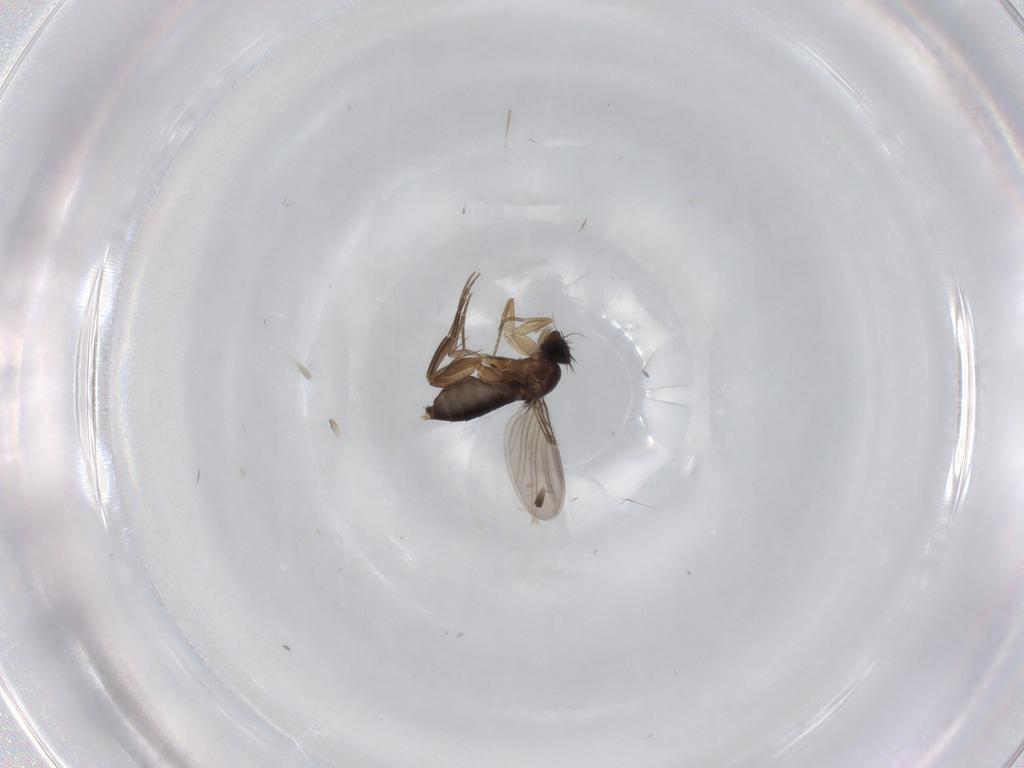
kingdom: Animalia
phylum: Arthropoda
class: Insecta
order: Diptera
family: Phoridae
